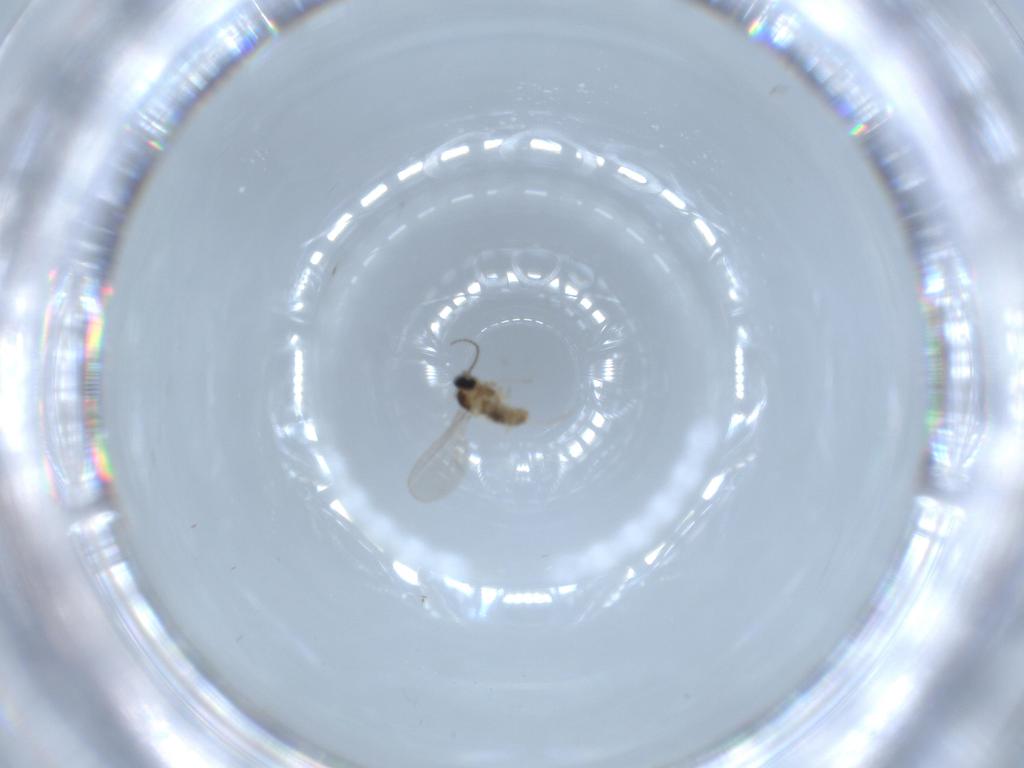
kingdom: Animalia
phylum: Arthropoda
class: Insecta
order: Diptera
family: Cecidomyiidae
